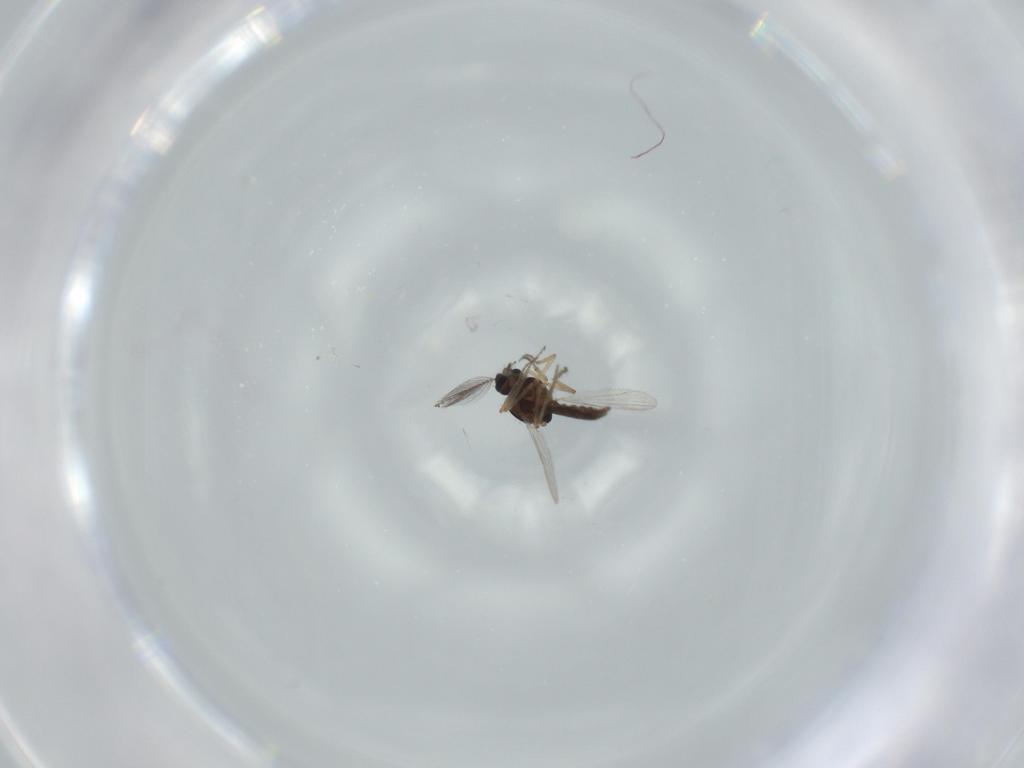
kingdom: Animalia
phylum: Arthropoda
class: Insecta
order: Diptera
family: Ceratopogonidae
